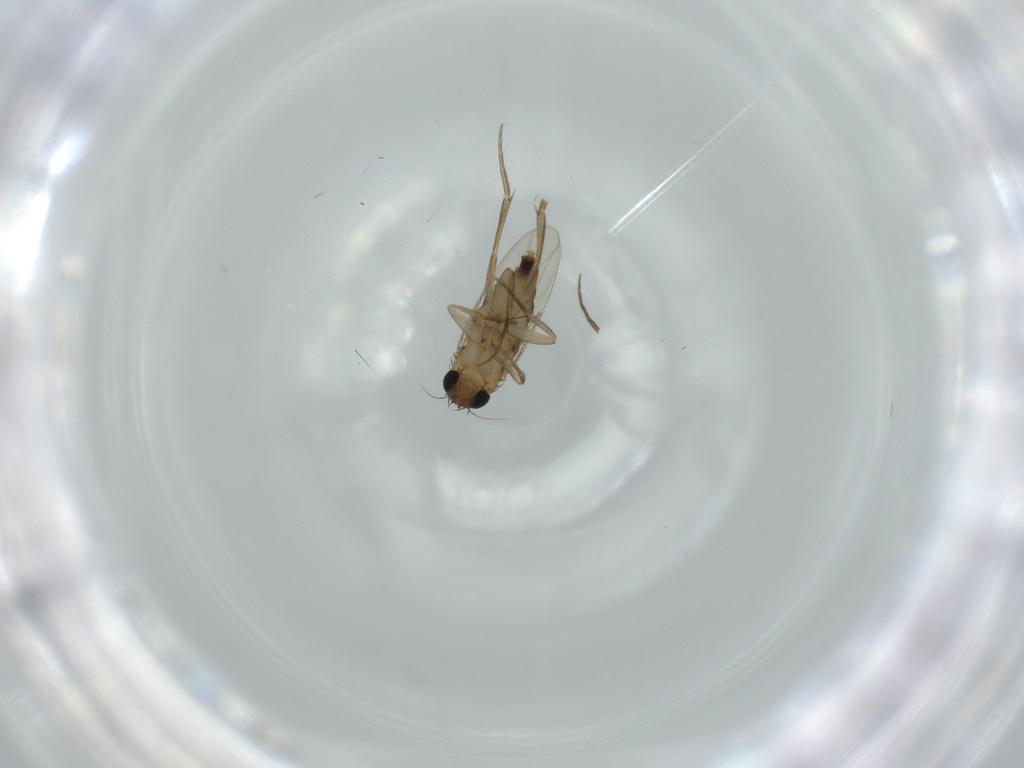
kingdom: Animalia
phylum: Arthropoda
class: Insecta
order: Diptera
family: Phoridae
